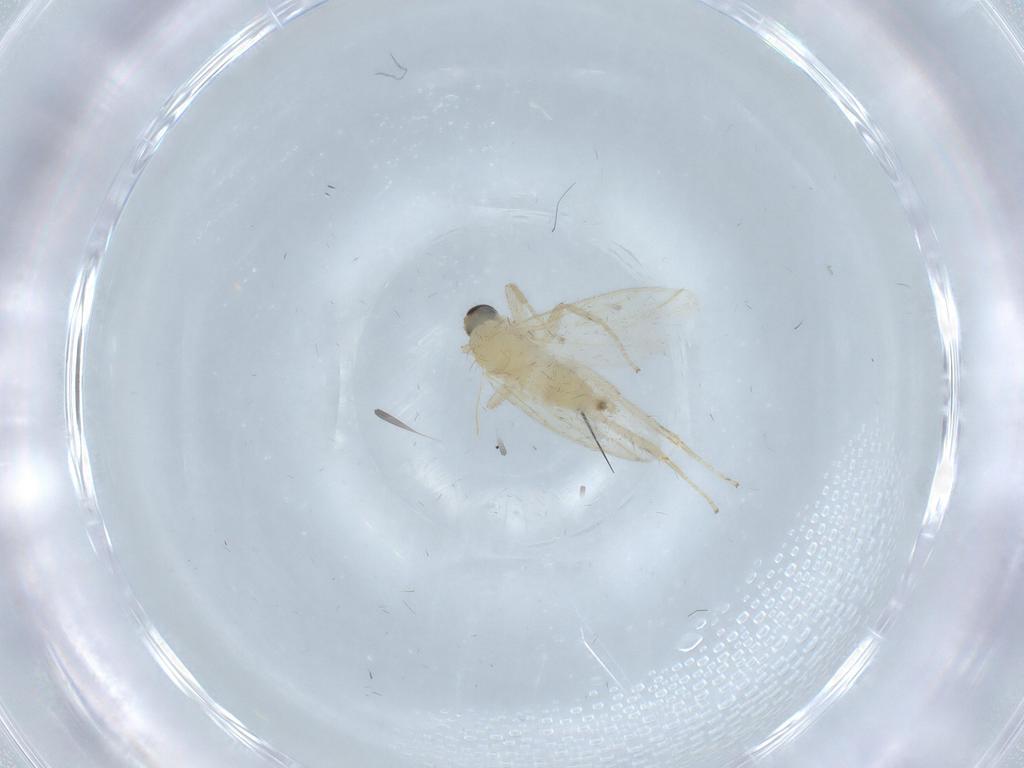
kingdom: Animalia
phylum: Arthropoda
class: Insecta
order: Diptera
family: Hybotidae
